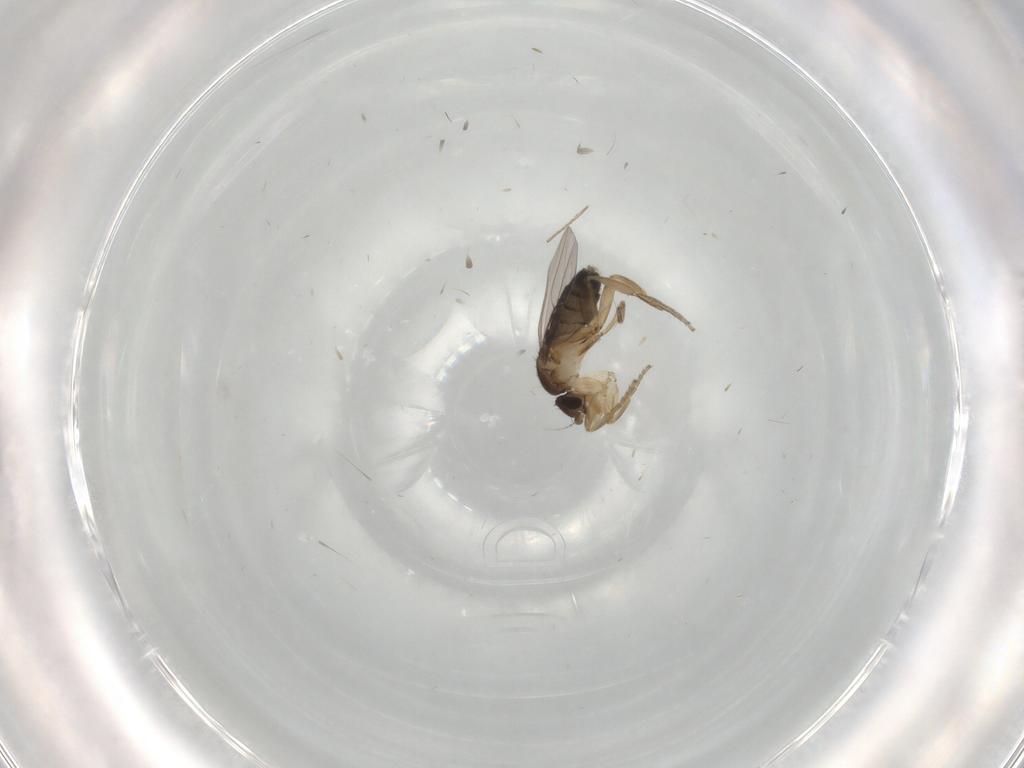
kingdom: Animalia
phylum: Arthropoda
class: Insecta
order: Diptera
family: Phoridae
